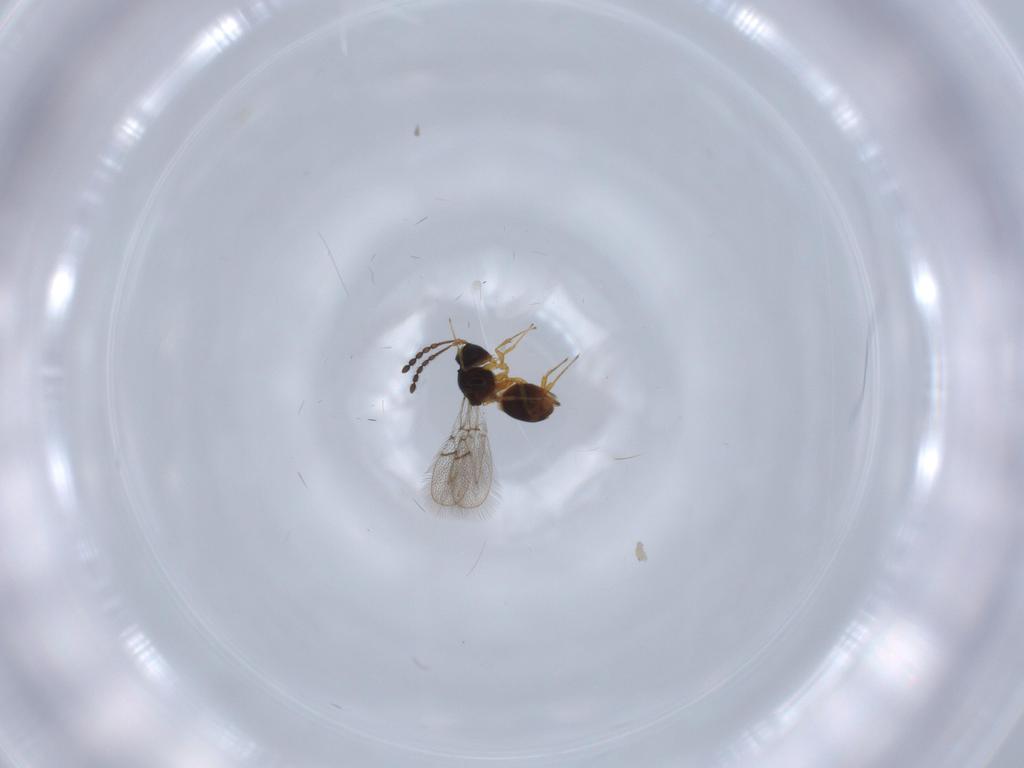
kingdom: Animalia
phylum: Arthropoda
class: Insecta
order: Hymenoptera
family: Figitidae
